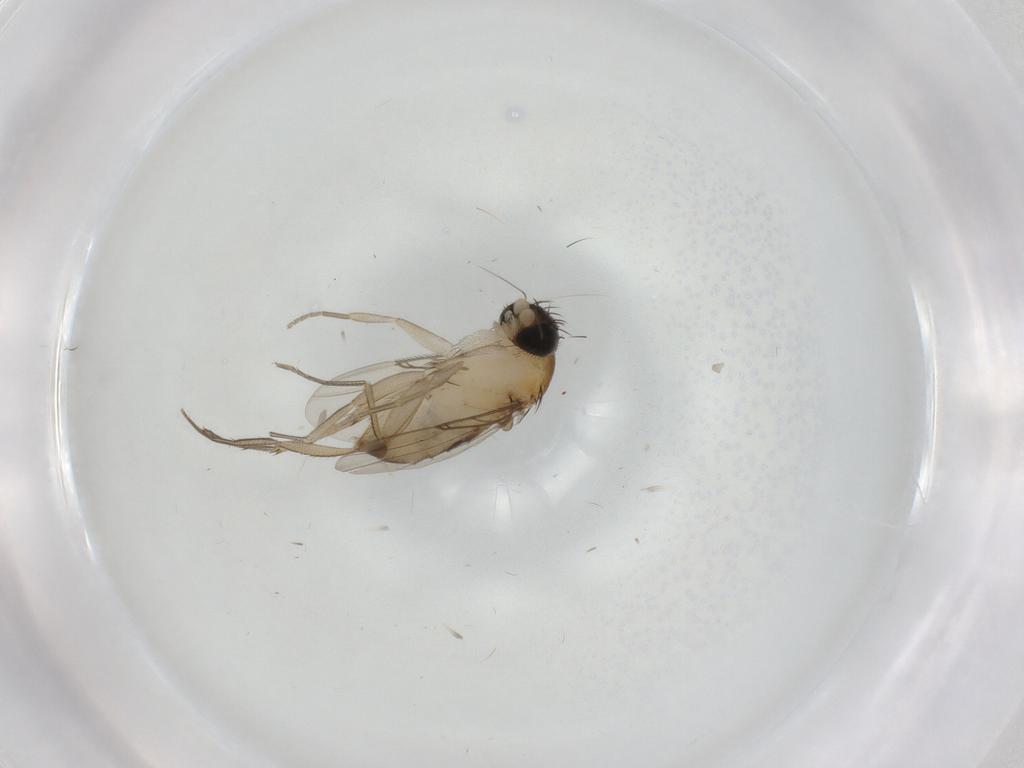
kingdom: Animalia
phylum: Arthropoda
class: Insecta
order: Diptera
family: Phoridae
